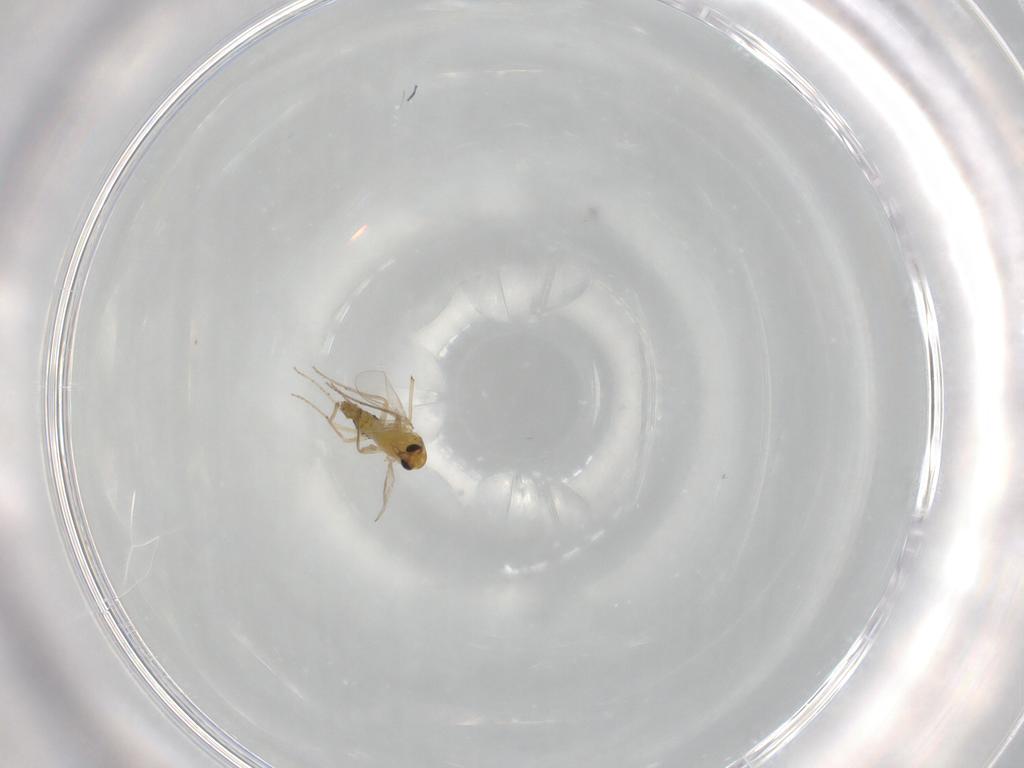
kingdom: Animalia
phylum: Arthropoda
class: Insecta
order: Diptera
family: Chironomidae
